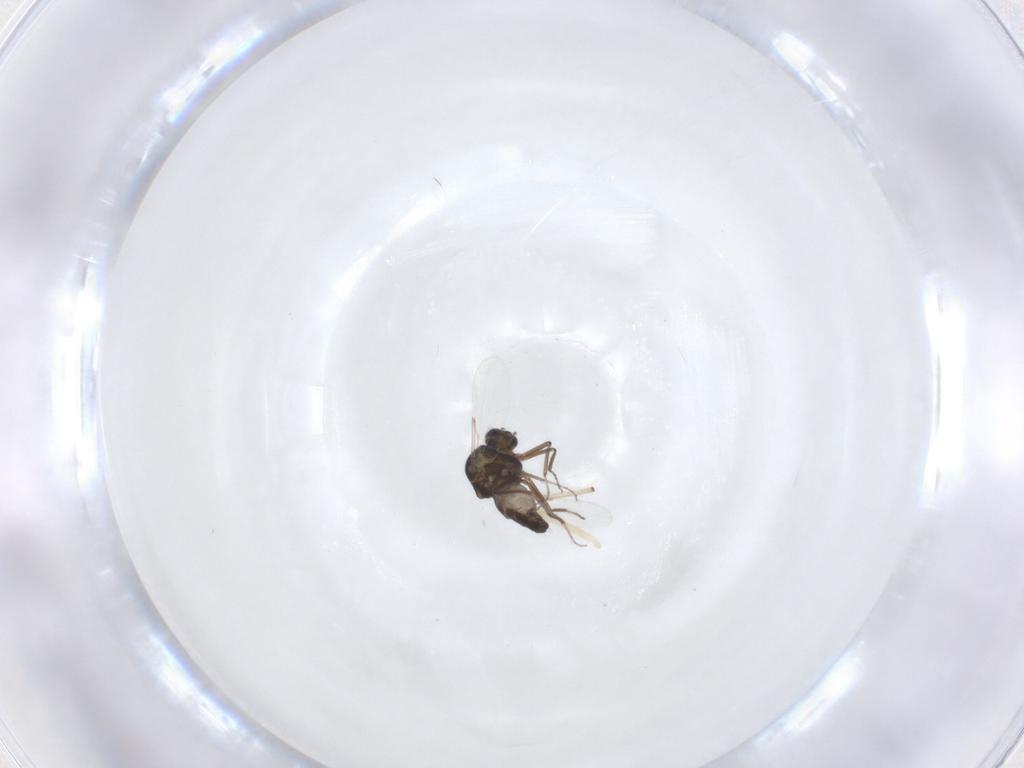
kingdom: Animalia
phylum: Arthropoda
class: Insecta
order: Diptera
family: Ceratopogonidae
